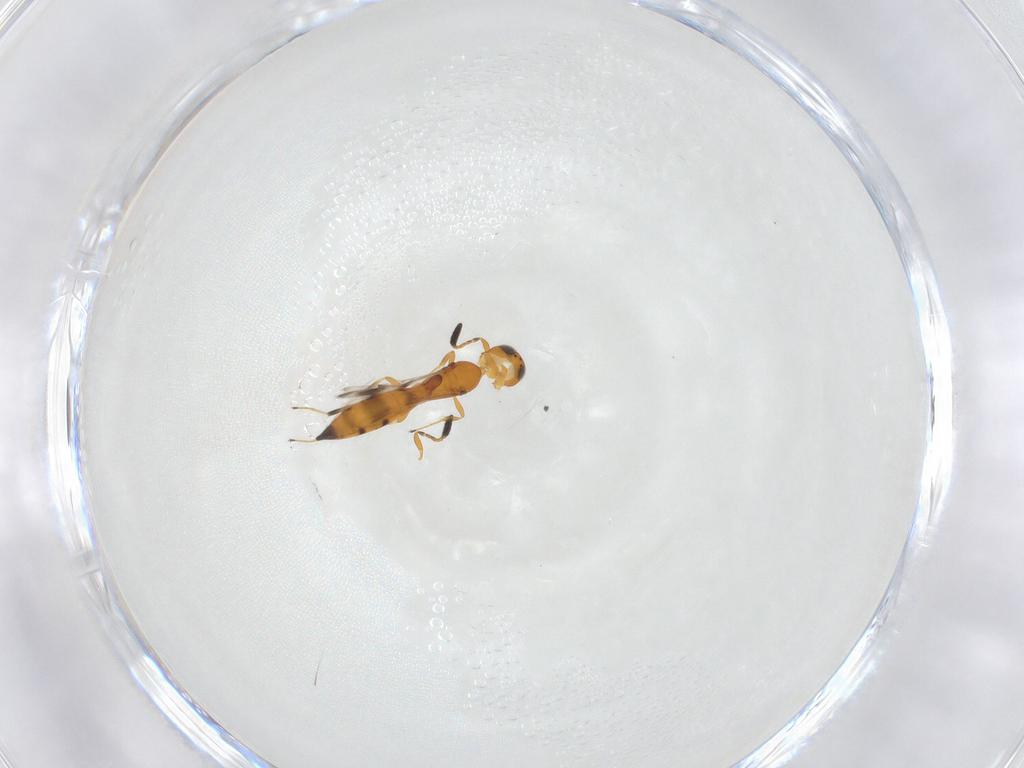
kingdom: Animalia
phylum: Arthropoda
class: Insecta
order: Hymenoptera
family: Scelionidae
